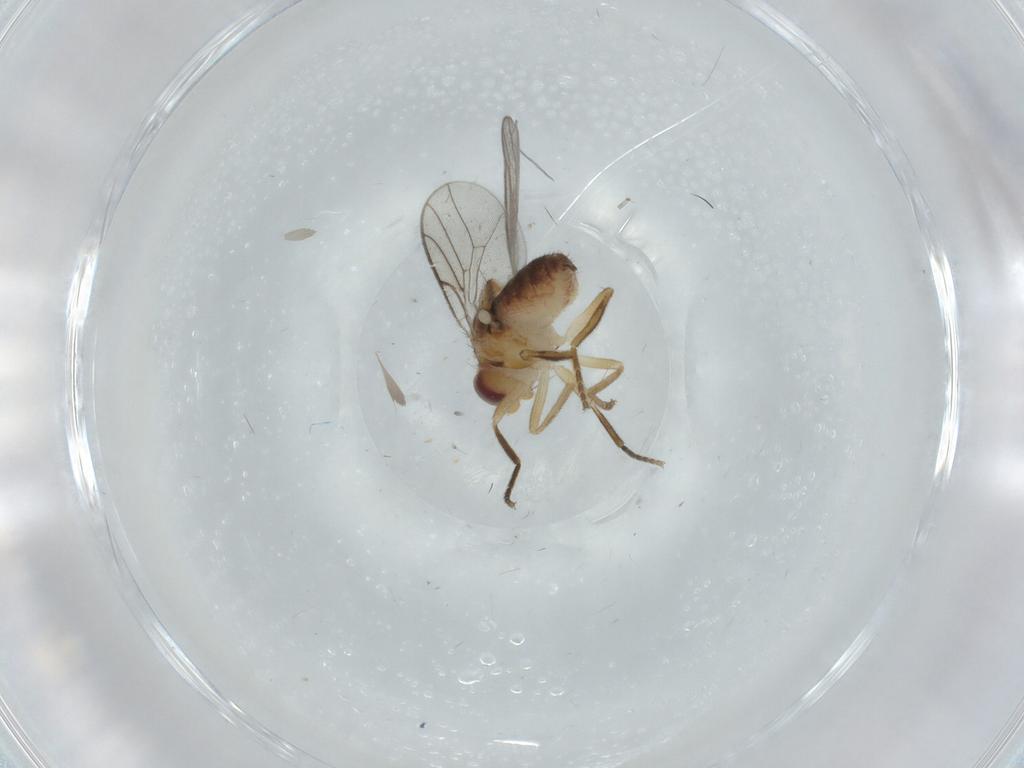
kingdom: Animalia
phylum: Arthropoda
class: Insecta
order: Diptera
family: Chloropidae
